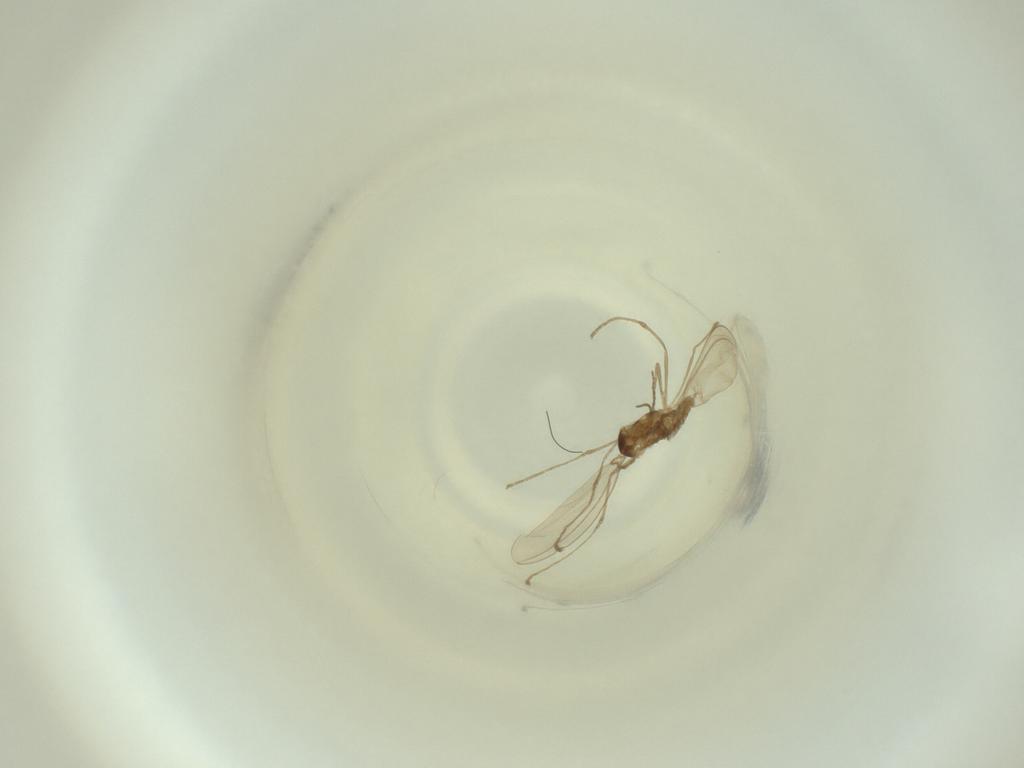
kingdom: Animalia
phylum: Arthropoda
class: Insecta
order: Diptera
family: Cecidomyiidae
